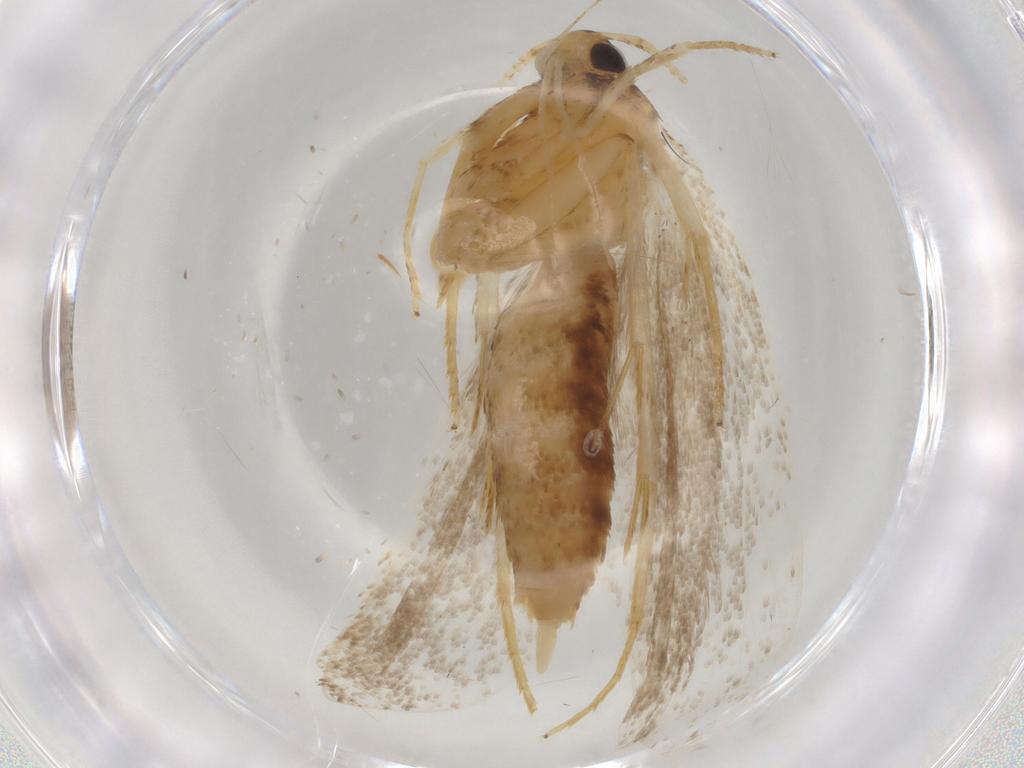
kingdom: Animalia
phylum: Arthropoda
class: Insecta
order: Lepidoptera
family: Lecithoceridae
